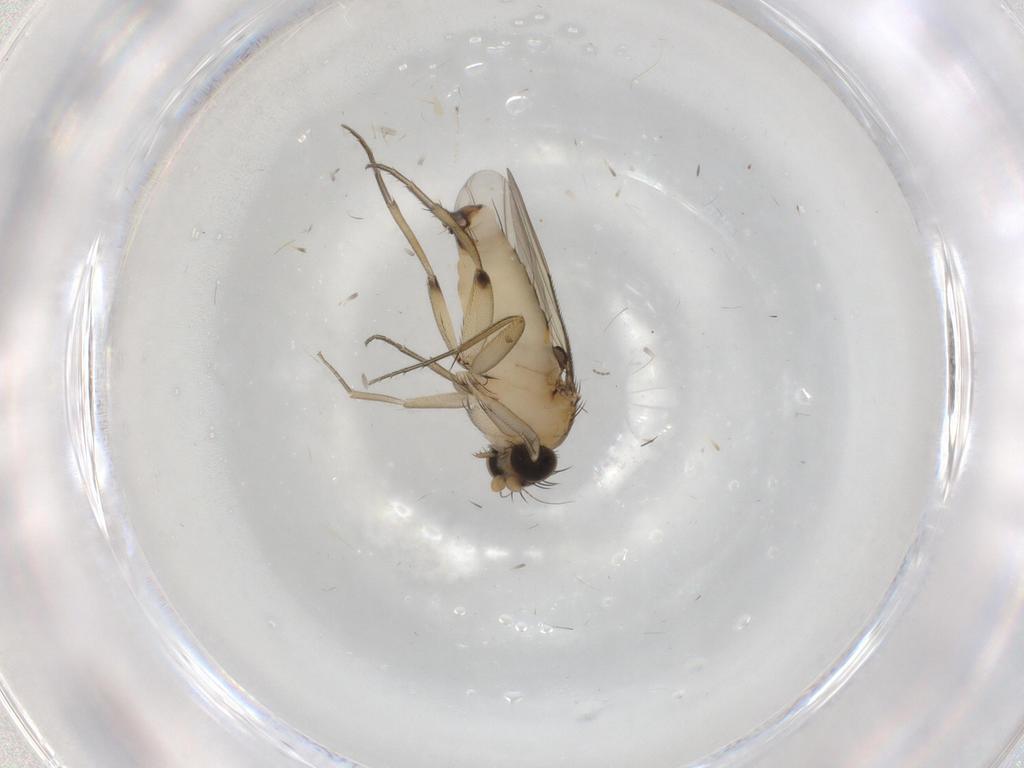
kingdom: Animalia
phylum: Arthropoda
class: Insecta
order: Diptera
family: Phoridae
